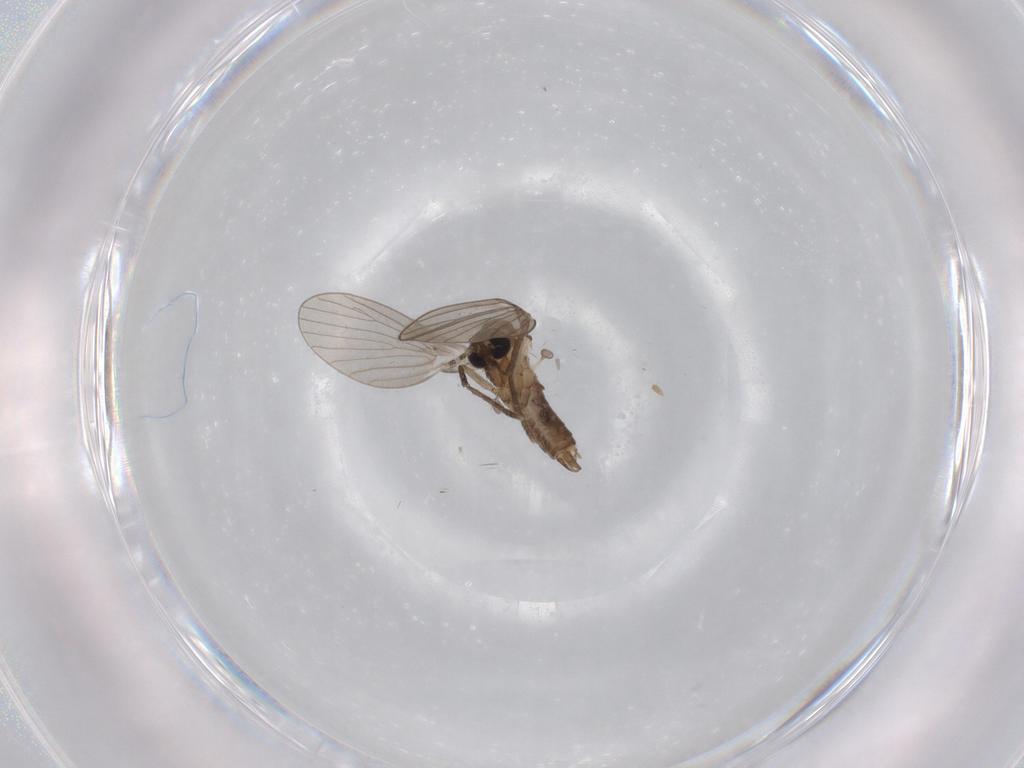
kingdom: Animalia
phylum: Arthropoda
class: Insecta
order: Diptera
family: Psychodidae
